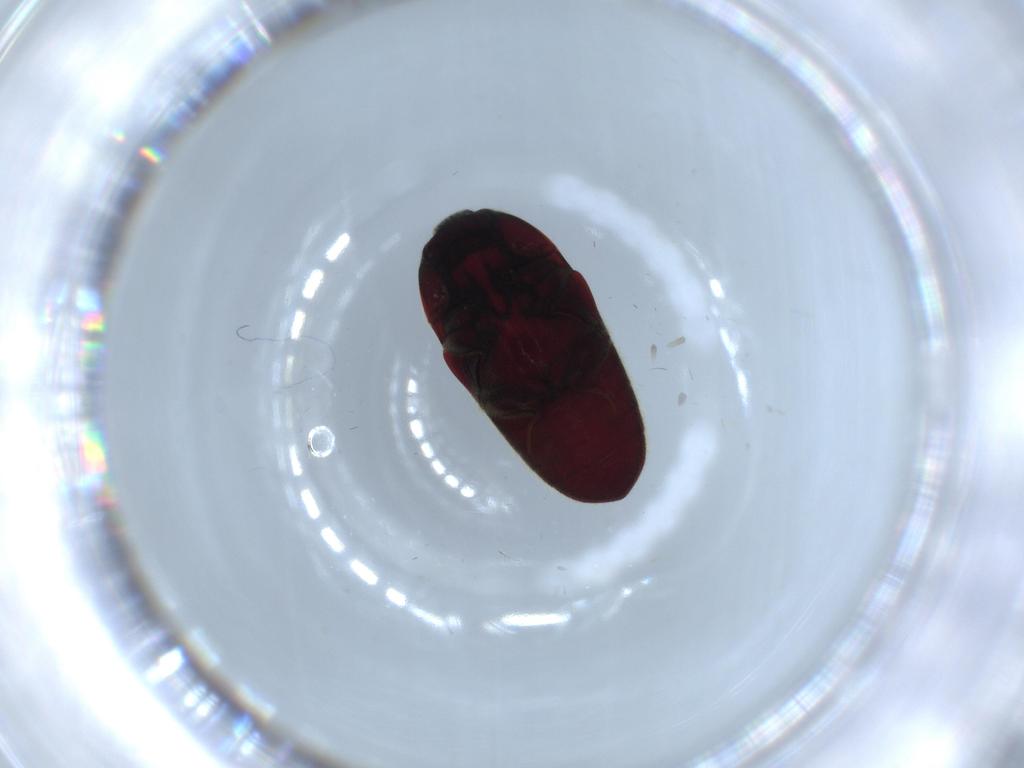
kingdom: Animalia
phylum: Arthropoda
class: Insecta
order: Coleoptera
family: Throscidae
